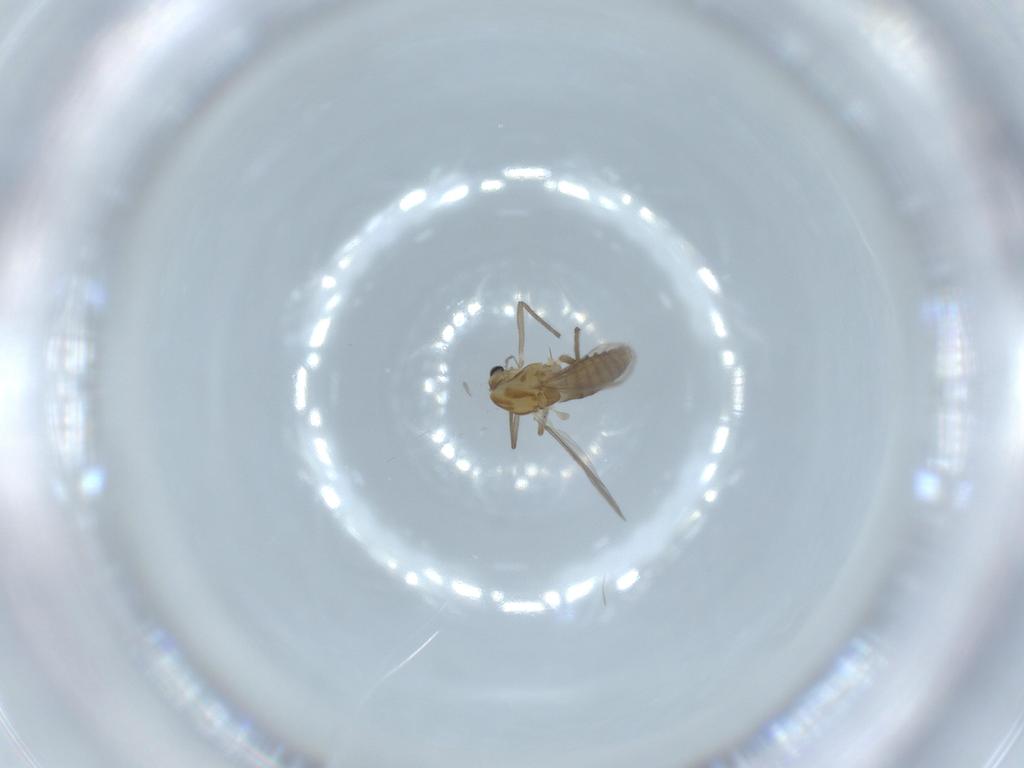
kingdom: Animalia
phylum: Arthropoda
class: Insecta
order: Diptera
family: Chironomidae
